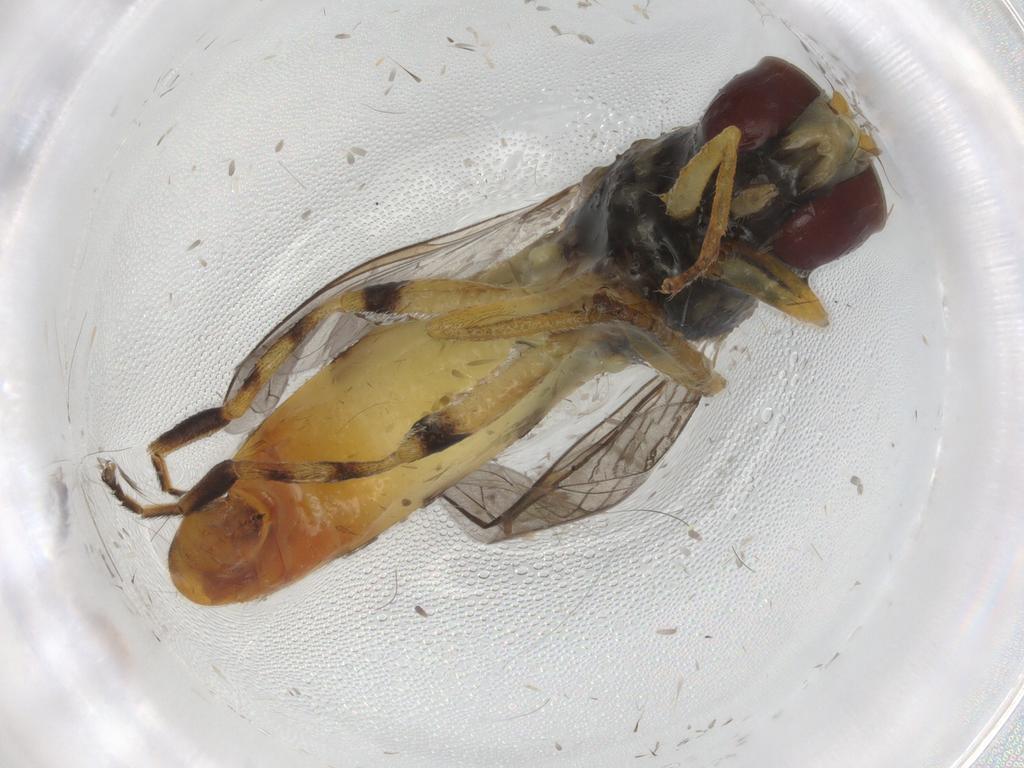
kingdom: Animalia
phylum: Arthropoda
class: Insecta
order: Diptera
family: Syrphidae
